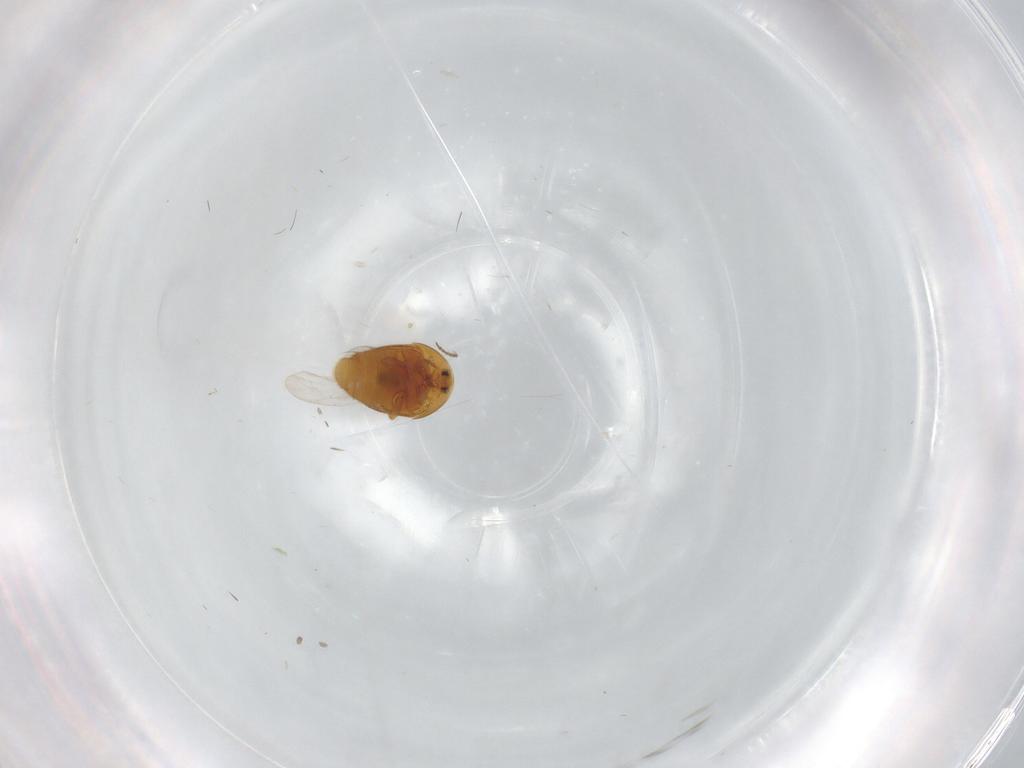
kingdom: Animalia
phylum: Arthropoda
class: Insecta
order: Coleoptera
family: Corylophidae
